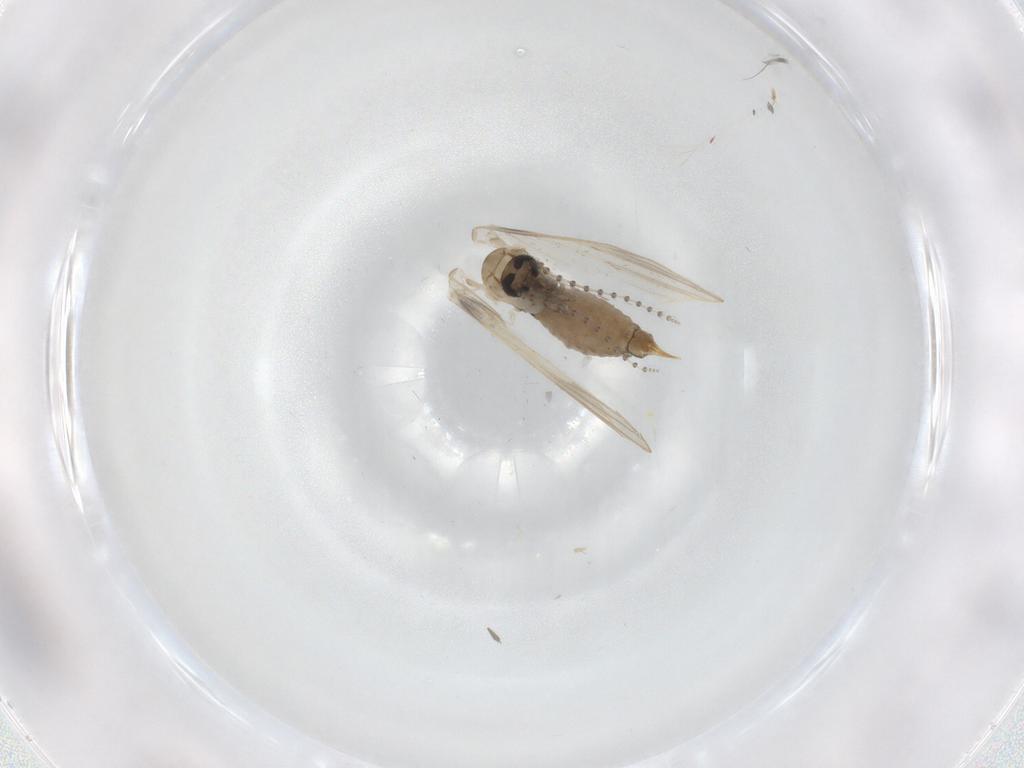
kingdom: Animalia
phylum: Arthropoda
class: Insecta
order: Diptera
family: Psychodidae
